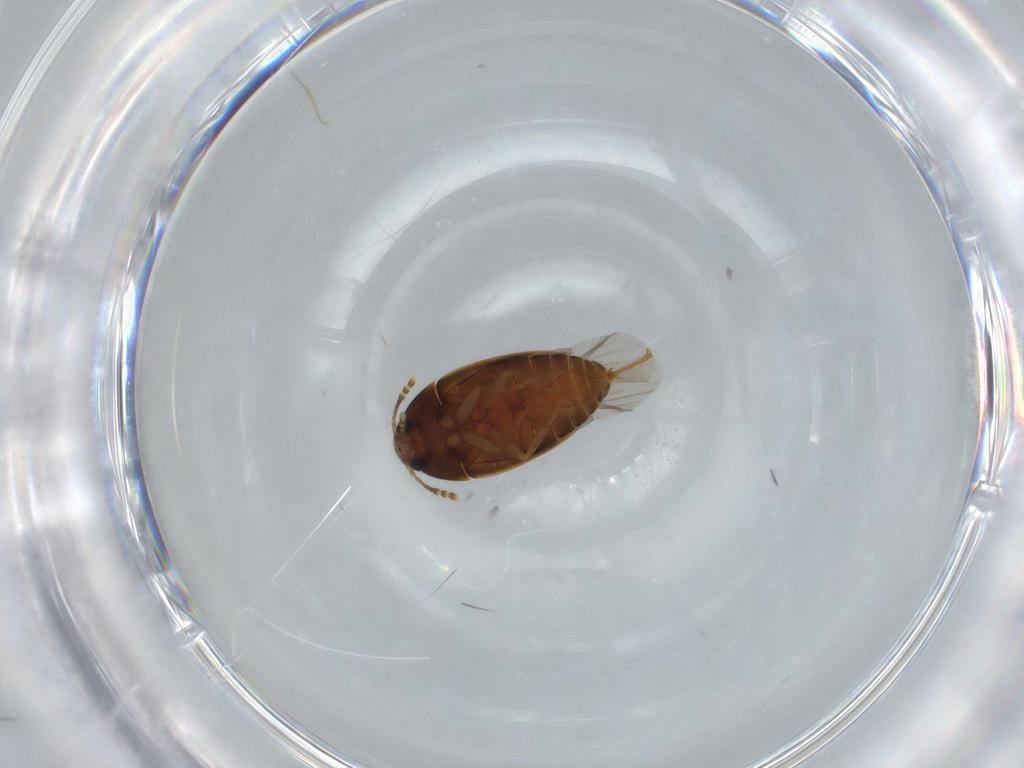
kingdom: Animalia
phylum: Arthropoda
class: Insecta
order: Coleoptera
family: Mycetophagidae
